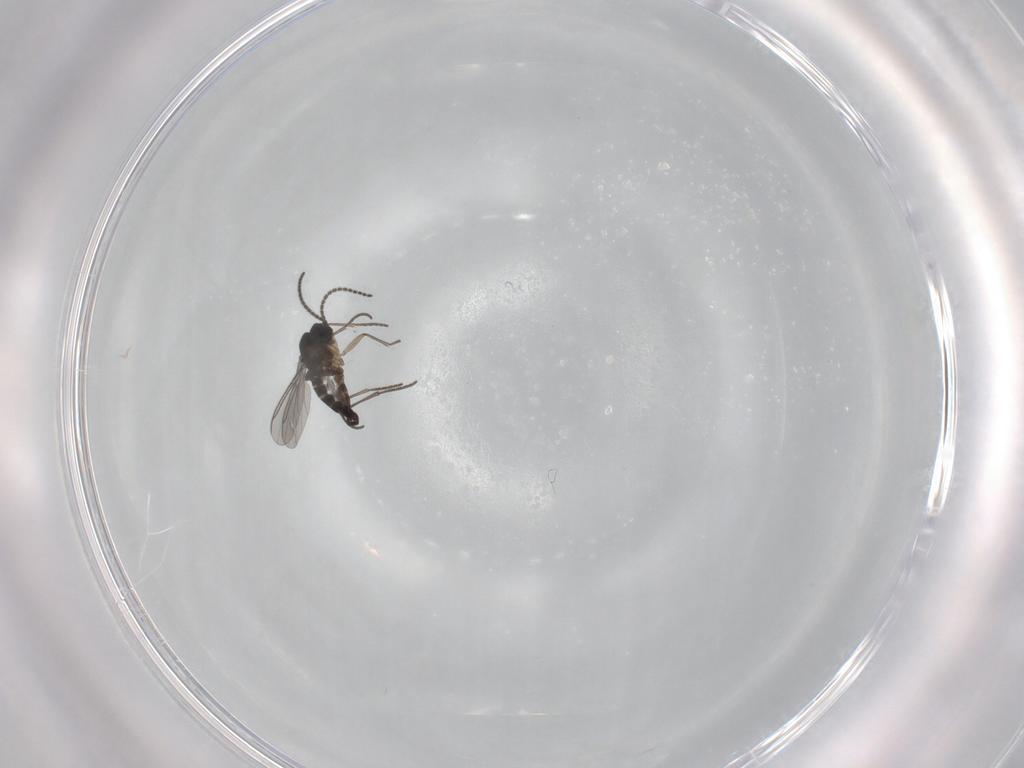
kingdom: Animalia
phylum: Arthropoda
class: Insecta
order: Diptera
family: Sciaridae
